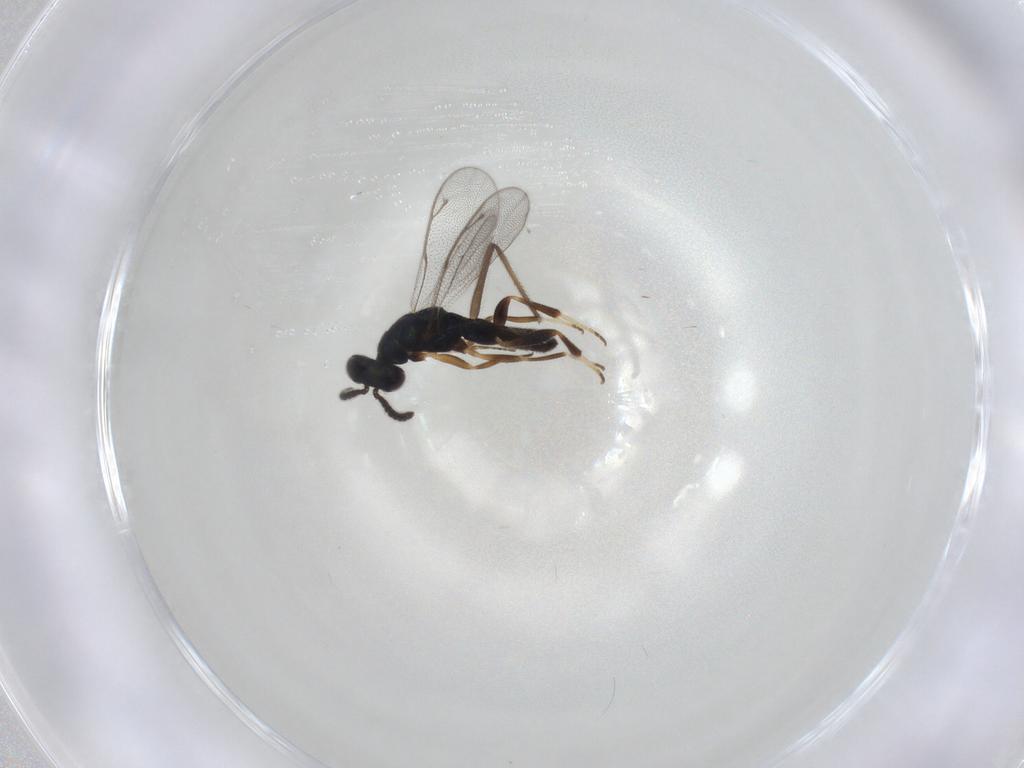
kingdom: Animalia
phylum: Arthropoda
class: Insecta
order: Hymenoptera
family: Cleonyminae
